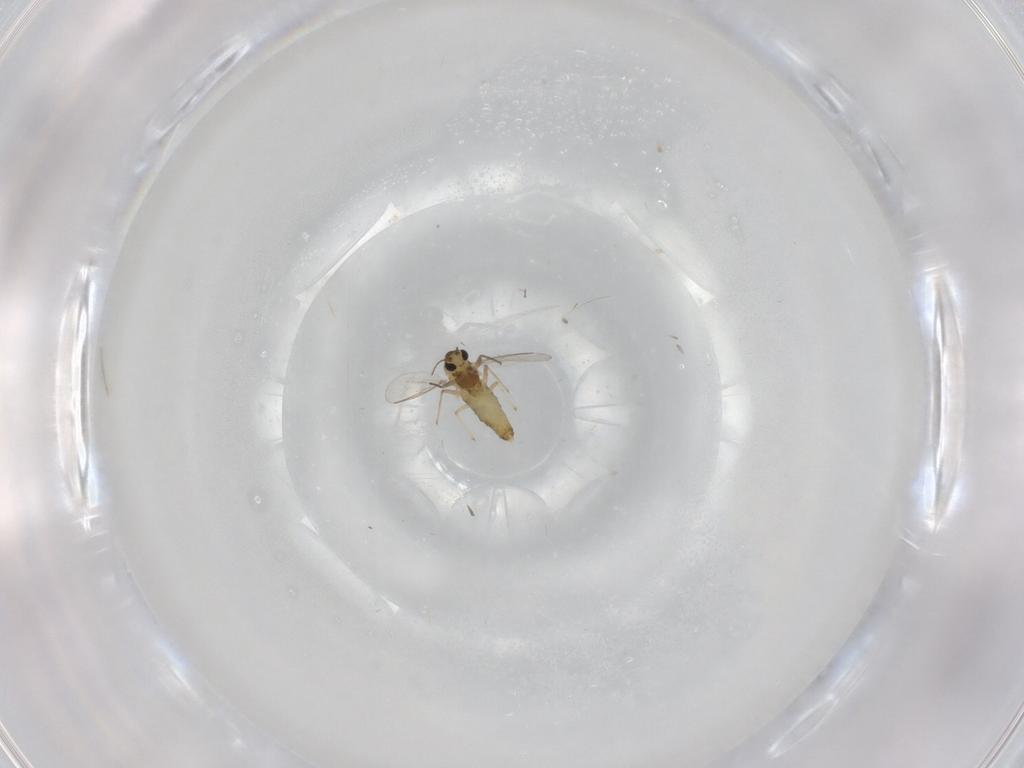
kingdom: Animalia
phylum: Arthropoda
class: Insecta
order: Diptera
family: Chironomidae
